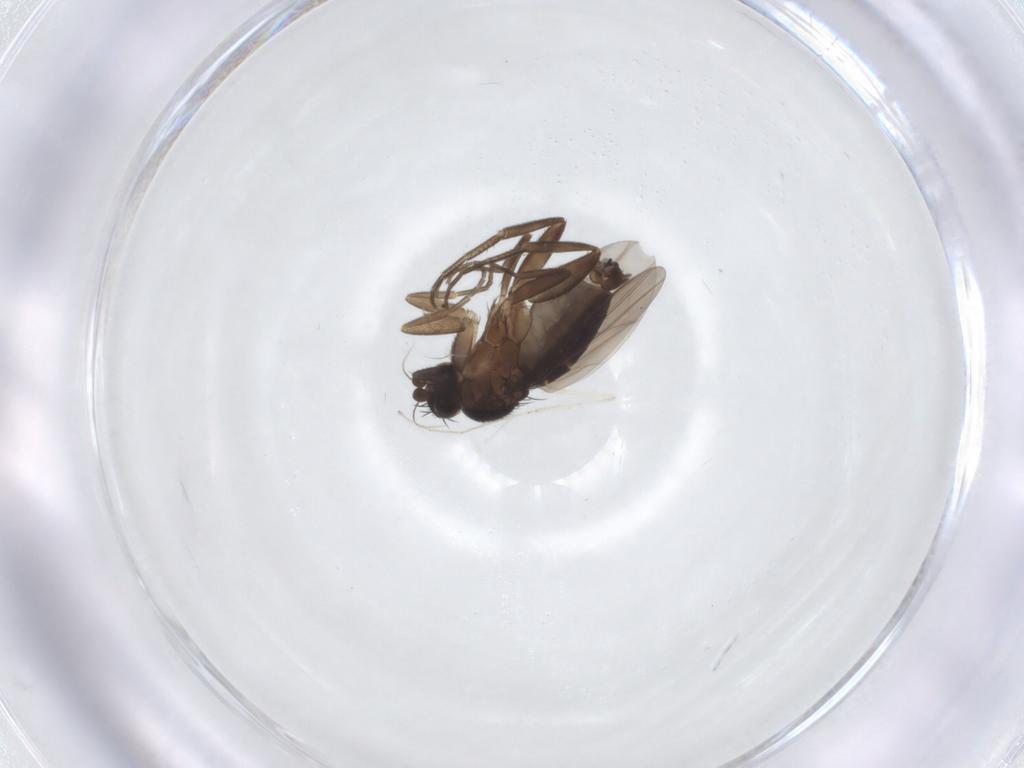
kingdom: Animalia
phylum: Arthropoda
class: Insecta
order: Diptera
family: Phoridae
